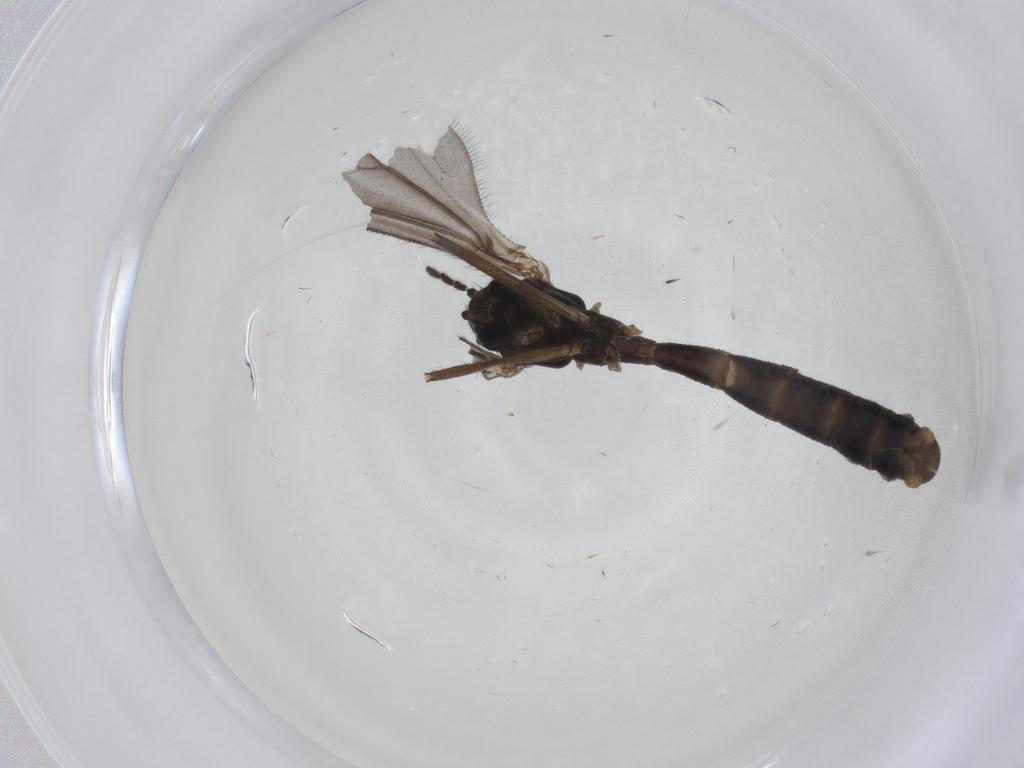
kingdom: Animalia
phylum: Arthropoda
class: Insecta
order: Diptera
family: Tachinidae
